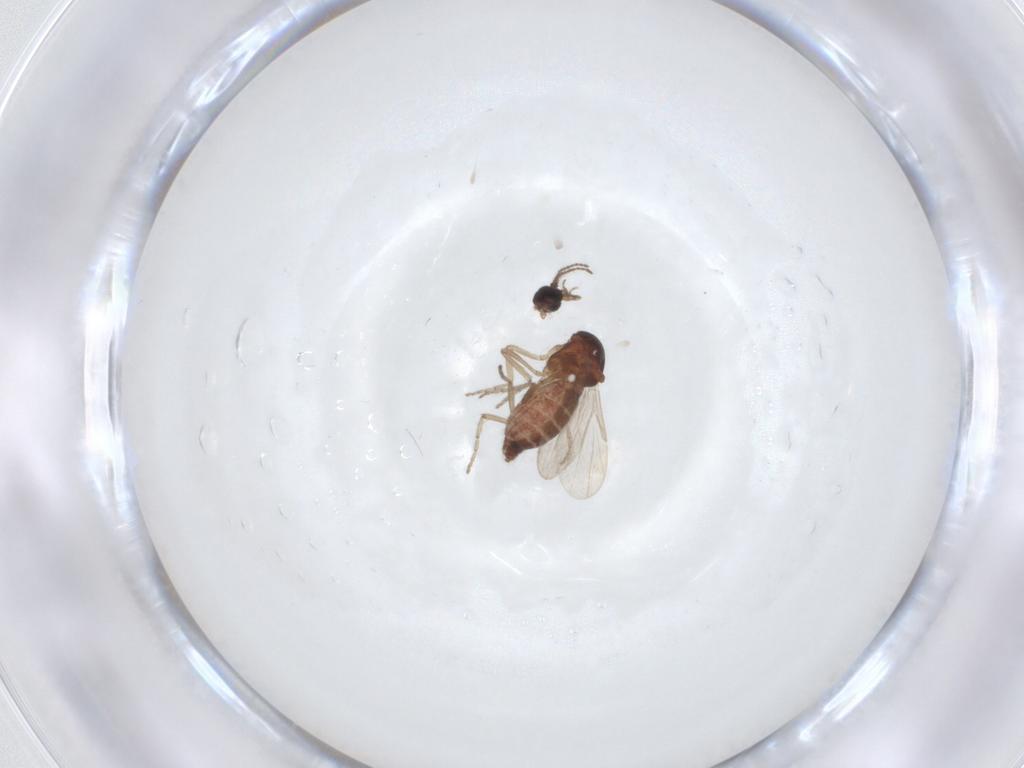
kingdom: Animalia
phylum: Arthropoda
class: Insecta
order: Diptera
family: Ceratopogonidae
